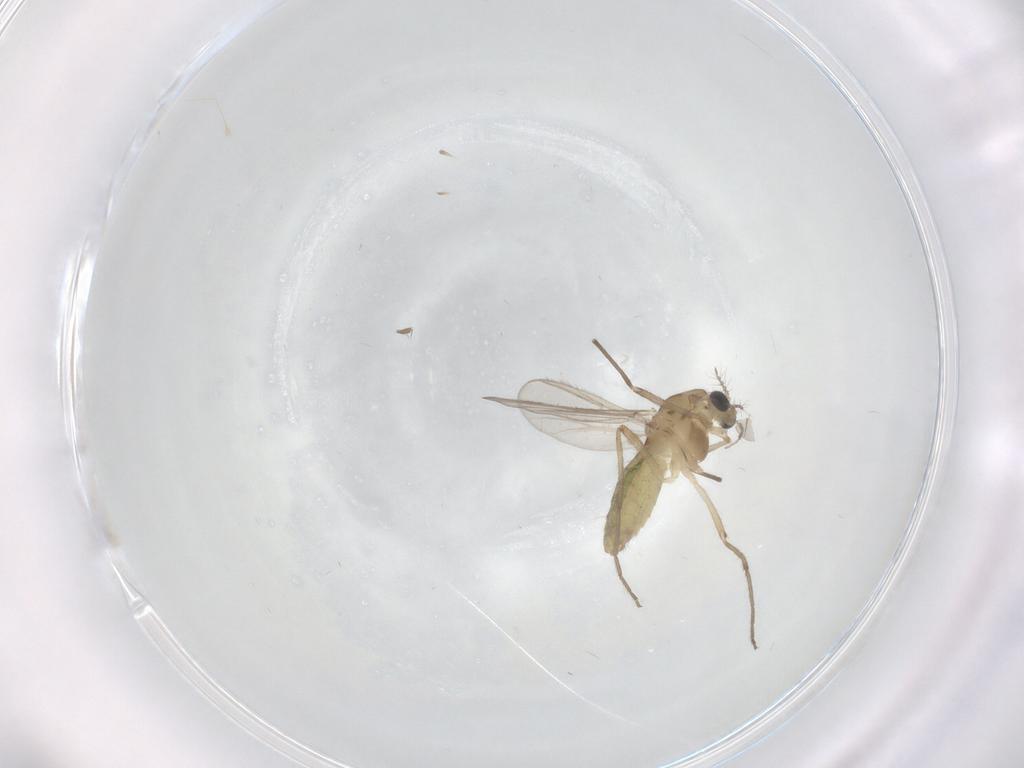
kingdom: Animalia
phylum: Arthropoda
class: Insecta
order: Diptera
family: Chironomidae
